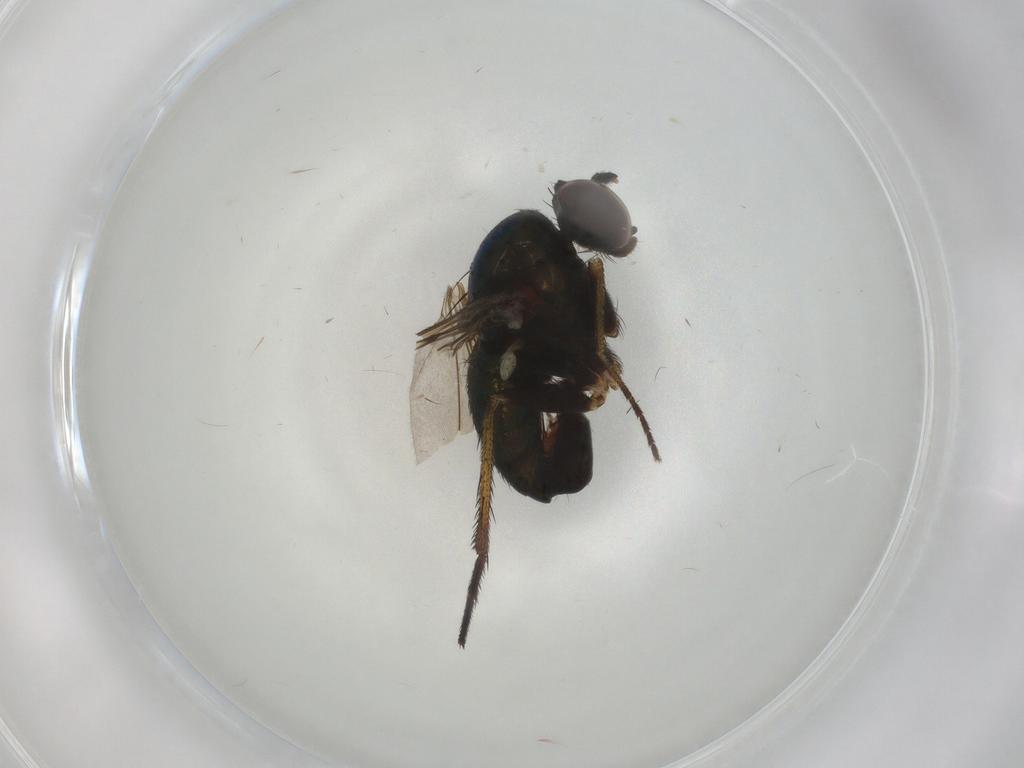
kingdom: Animalia
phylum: Arthropoda
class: Insecta
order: Diptera
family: Dolichopodidae
